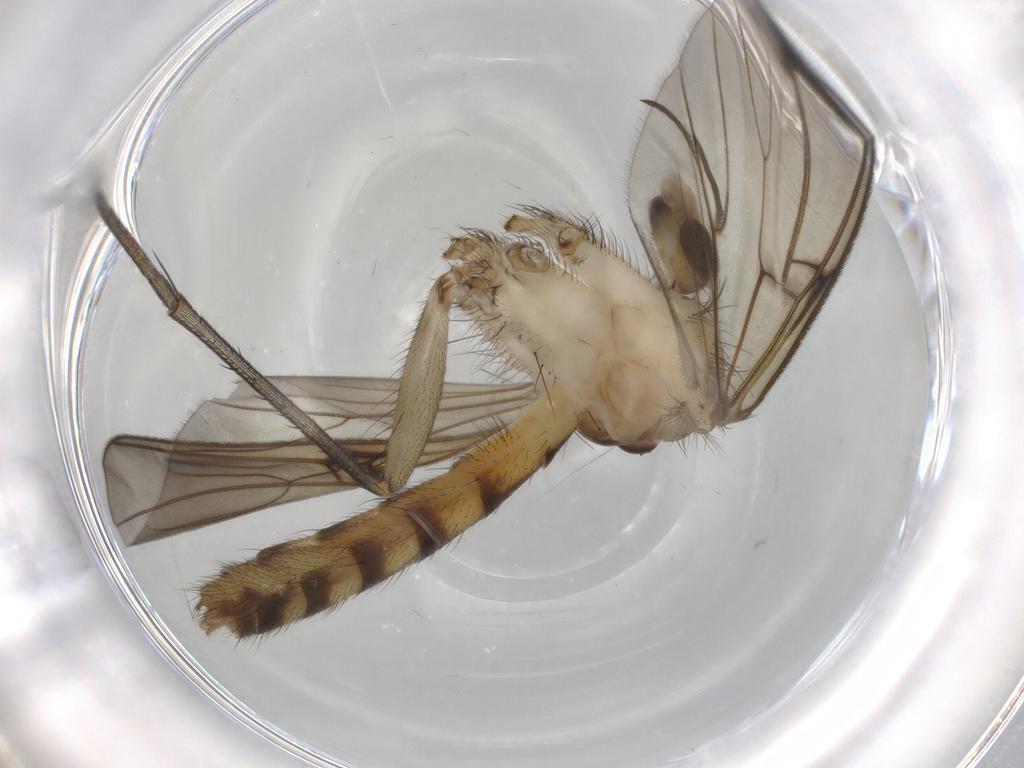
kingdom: Animalia
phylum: Arthropoda
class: Insecta
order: Diptera
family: Mycetophilidae
